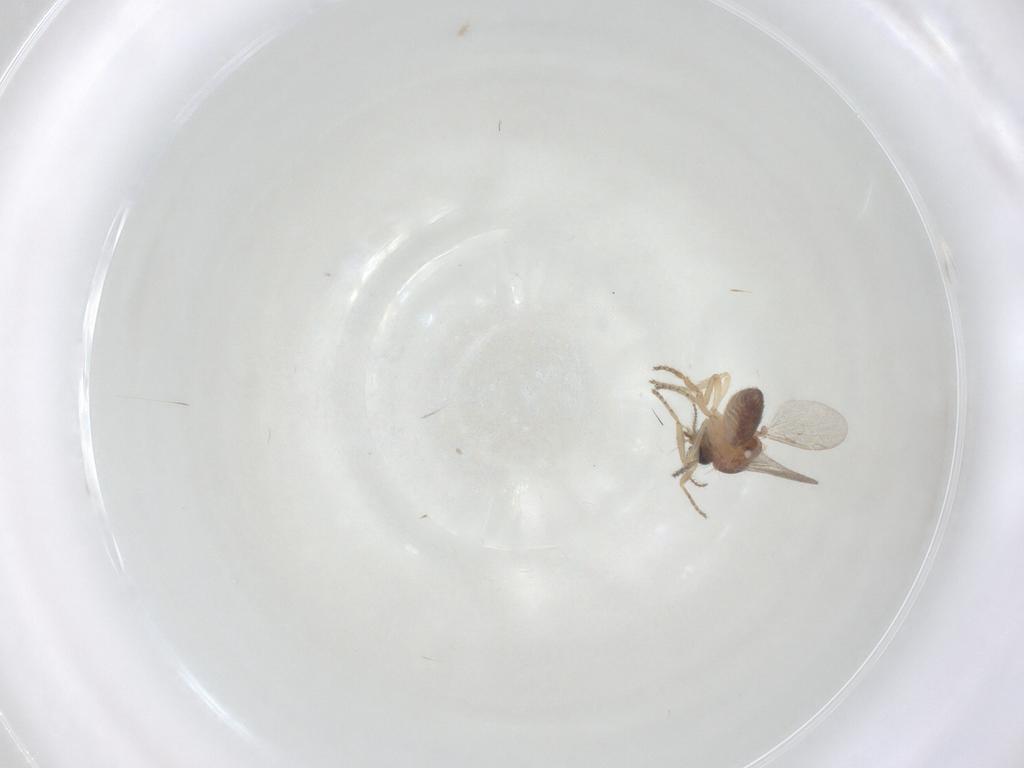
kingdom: Animalia
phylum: Arthropoda
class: Insecta
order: Diptera
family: Ceratopogonidae
